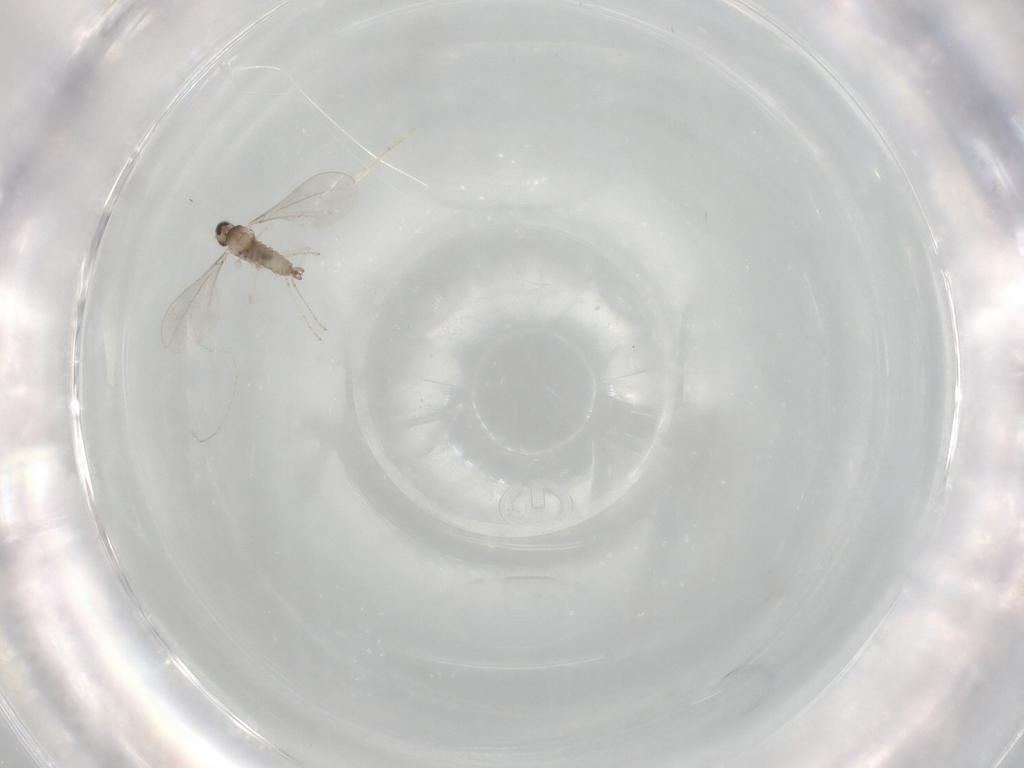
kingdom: Animalia
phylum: Arthropoda
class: Insecta
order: Diptera
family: Cecidomyiidae
